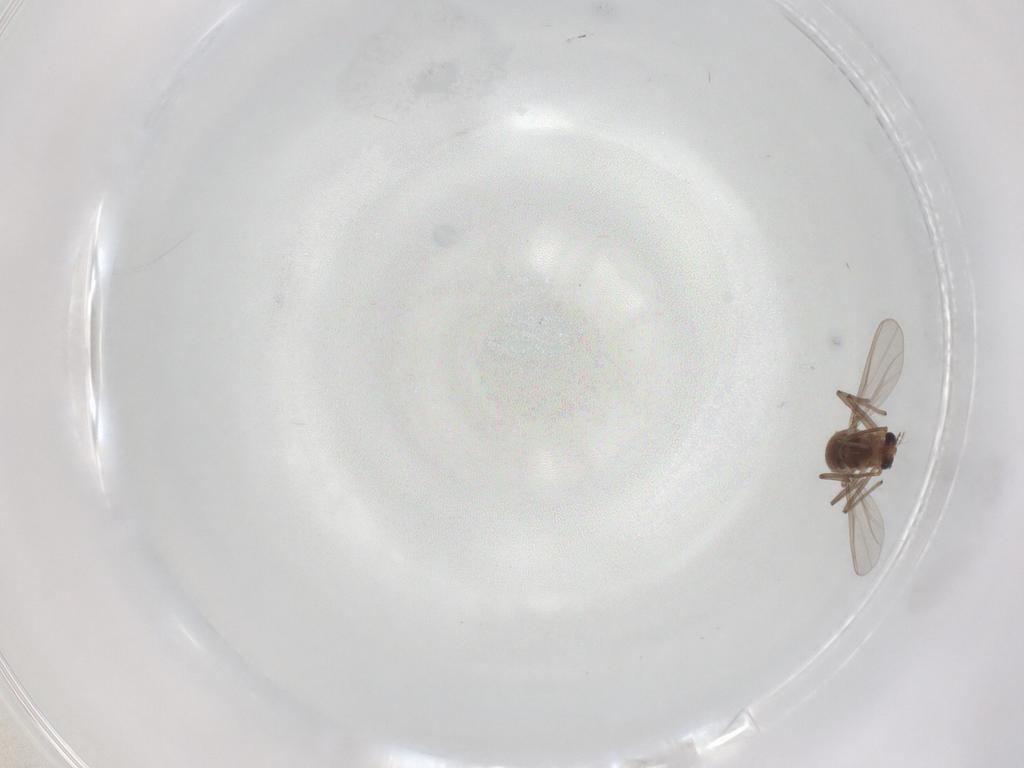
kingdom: Animalia
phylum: Arthropoda
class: Insecta
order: Diptera
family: Chironomidae
